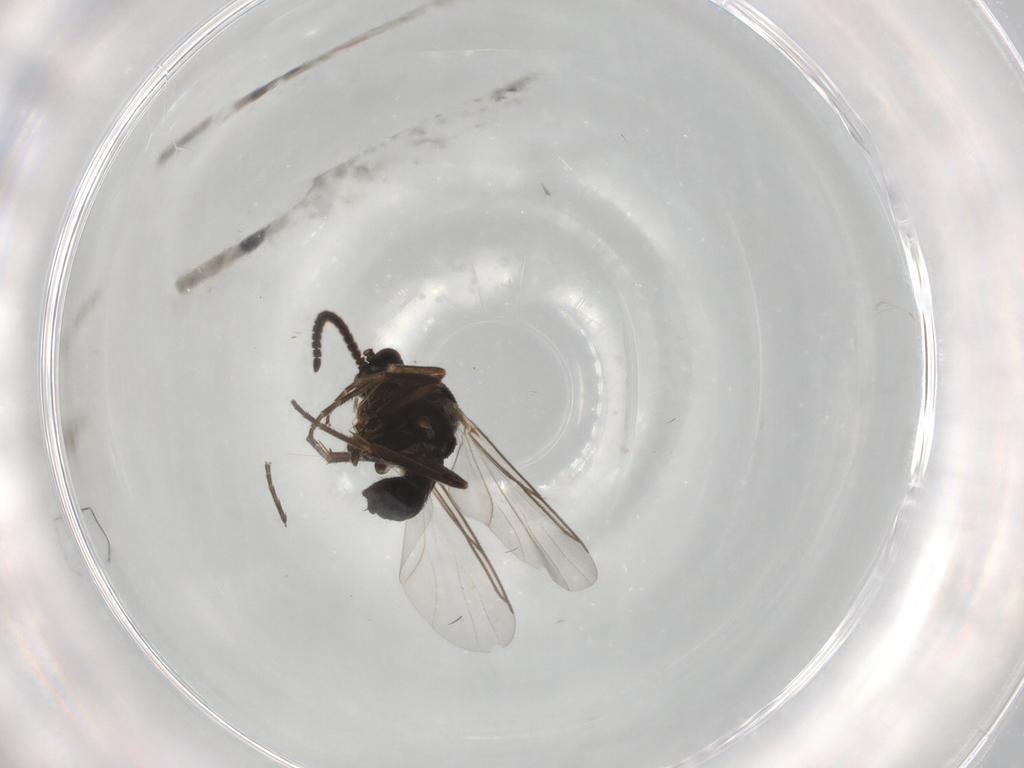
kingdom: Animalia
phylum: Arthropoda
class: Insecta
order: Diptera
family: Mycetophilidae
